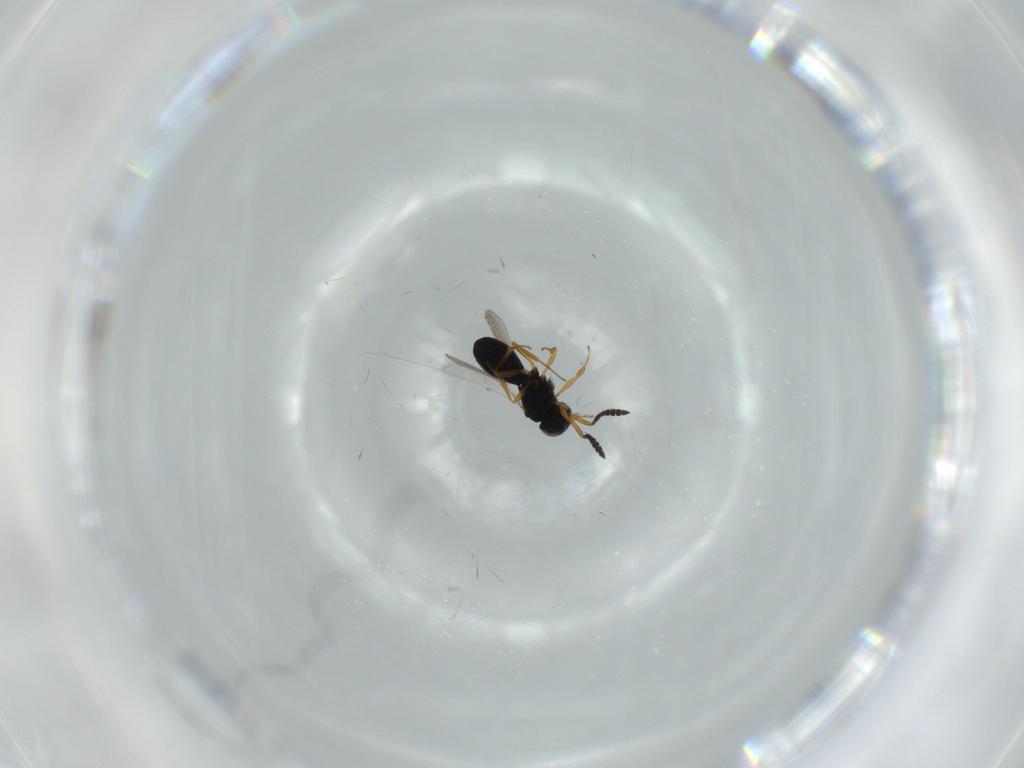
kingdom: Animalia
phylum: Arthropoda
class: Insecta
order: Hymenoptera
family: Scelionidae
